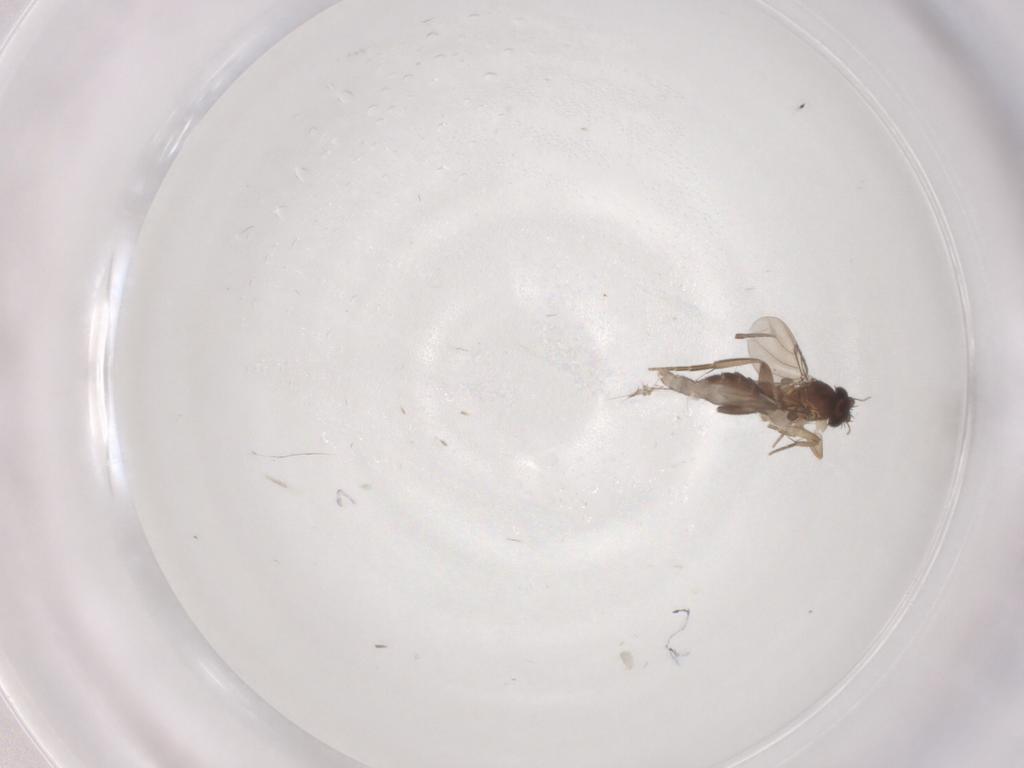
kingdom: Animalia
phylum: Arthropoda
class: Insecta
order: Diptera
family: Phoridae
